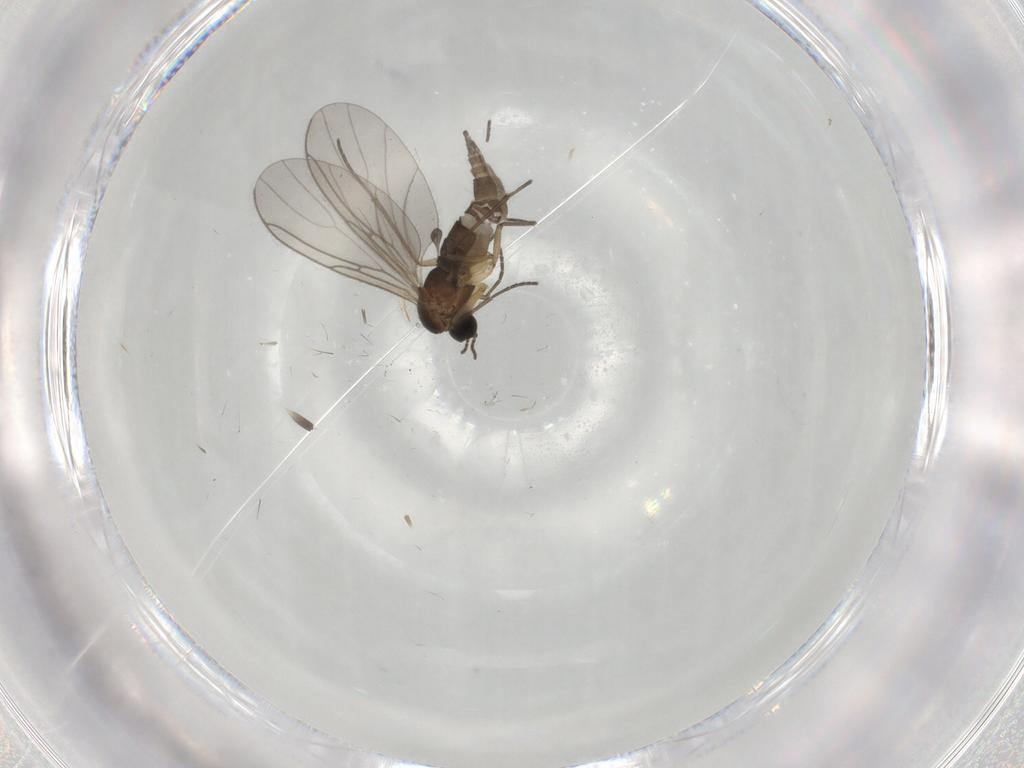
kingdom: Animalia
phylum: Arthropoda
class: Insecta
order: Diptera
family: Sciaridae
